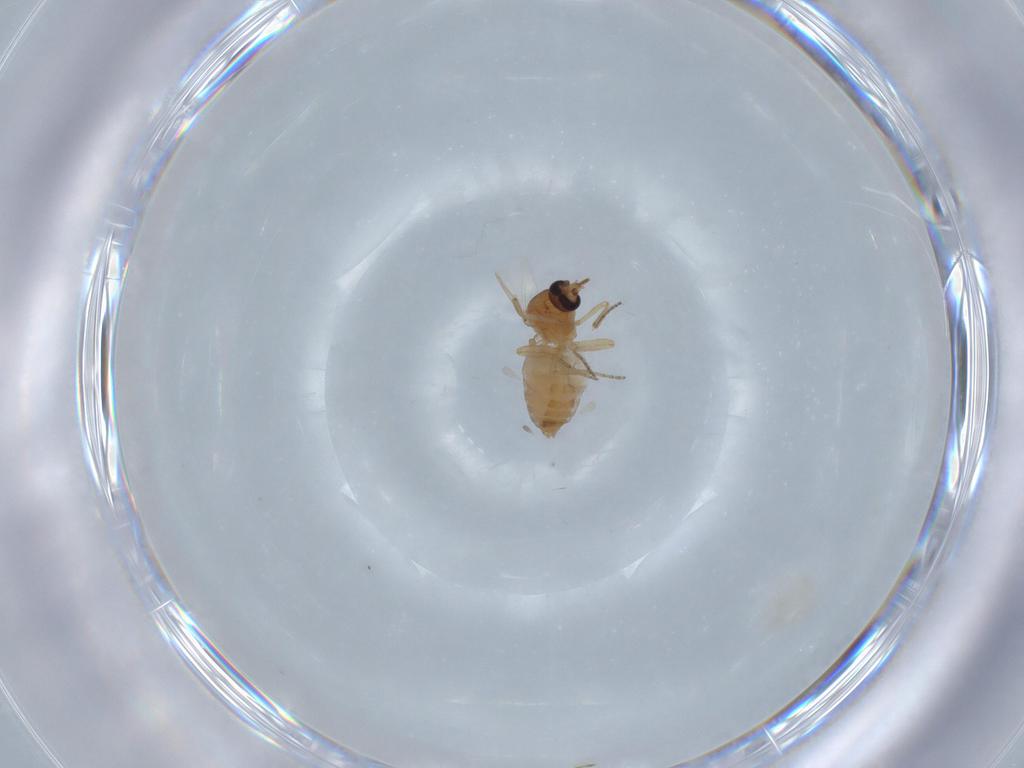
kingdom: Animalia
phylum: Arthropoda
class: Insecta
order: Diptera
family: Ceratopogonidae
